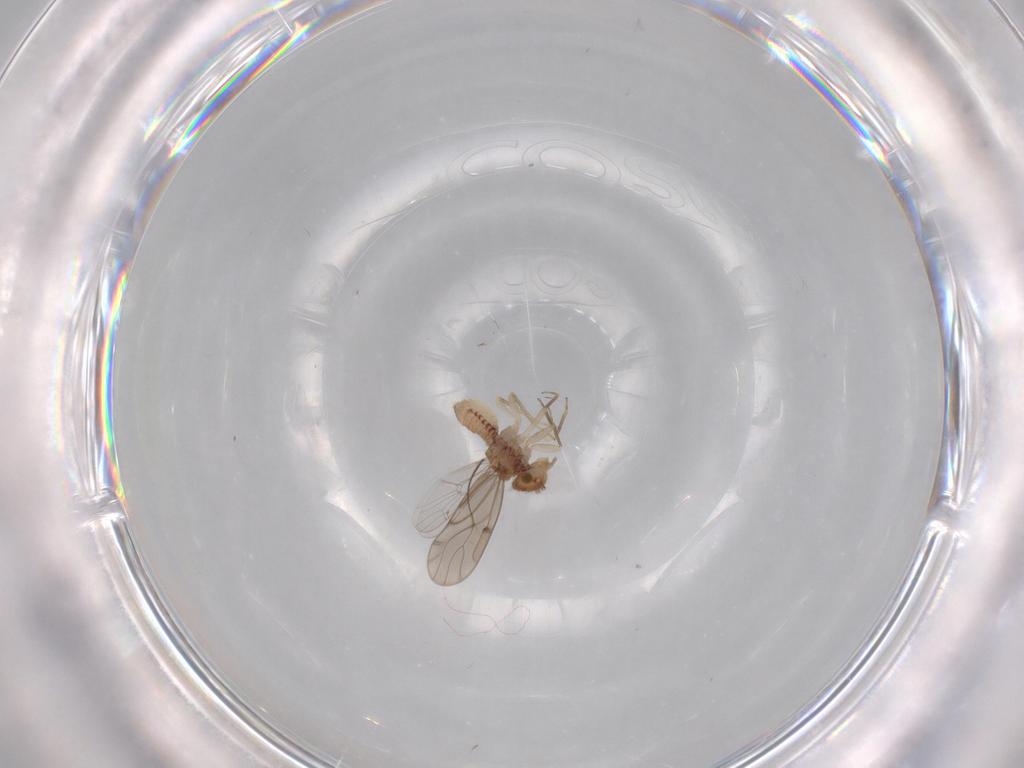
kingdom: Animalia
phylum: Arthropoda
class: Insecta
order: Psocodea
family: Ectopsocidae
